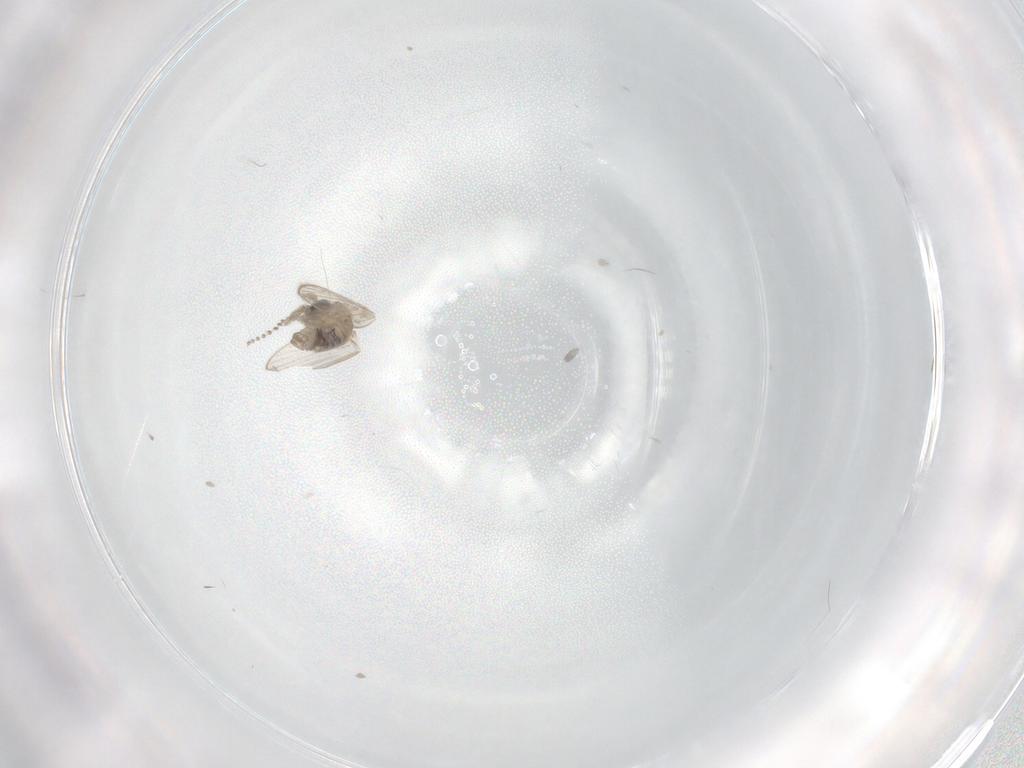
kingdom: Animalia
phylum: Arthropoda
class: Insecta
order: Diptera
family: Psychodidae
